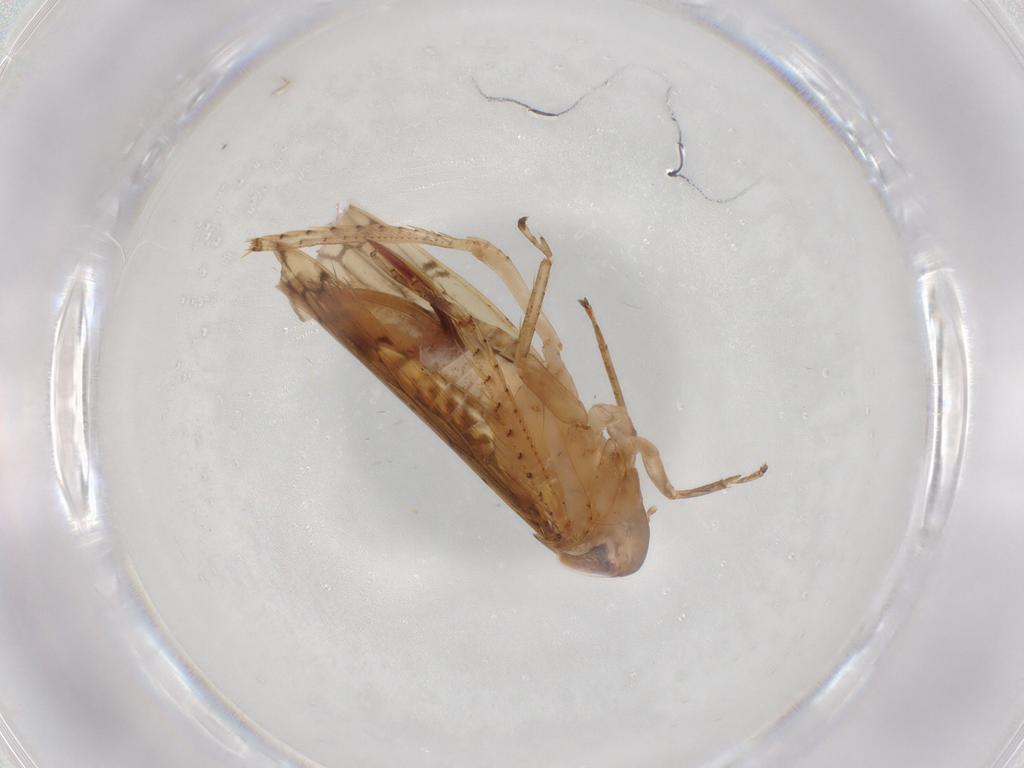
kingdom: Animalia
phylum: Arthropoda
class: Insecta
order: Hemiptera
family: Cicadellidae
